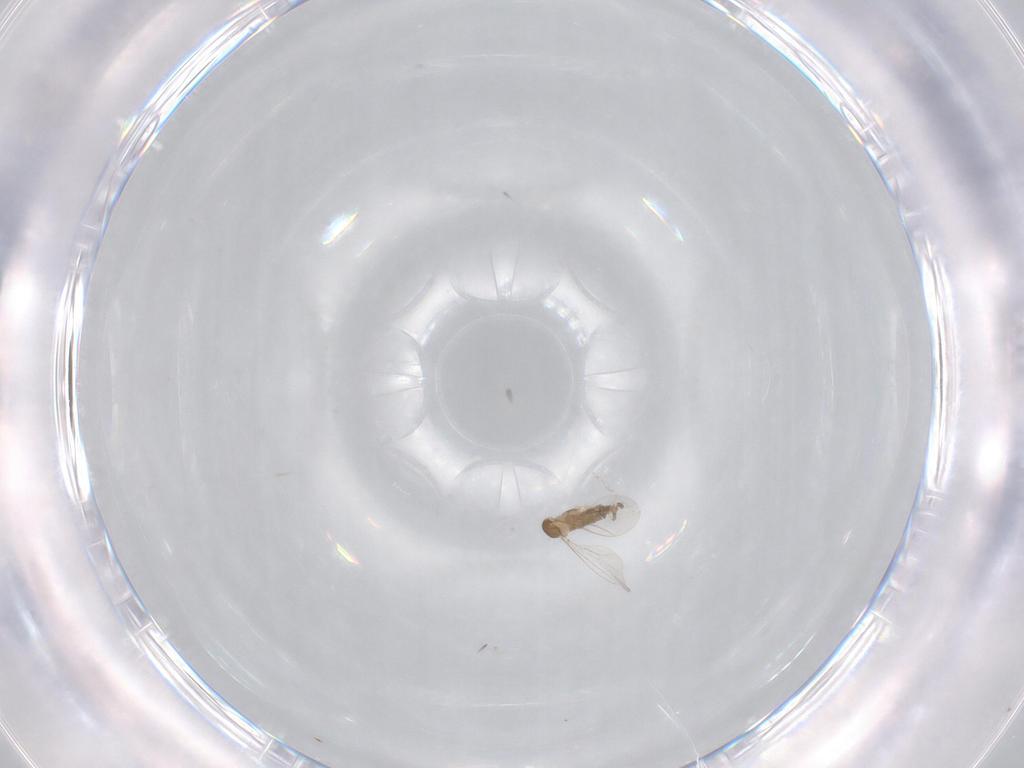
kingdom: Animalia
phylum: Arthropoda
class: Insecta
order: Diptera
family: Cecidomyiidae
